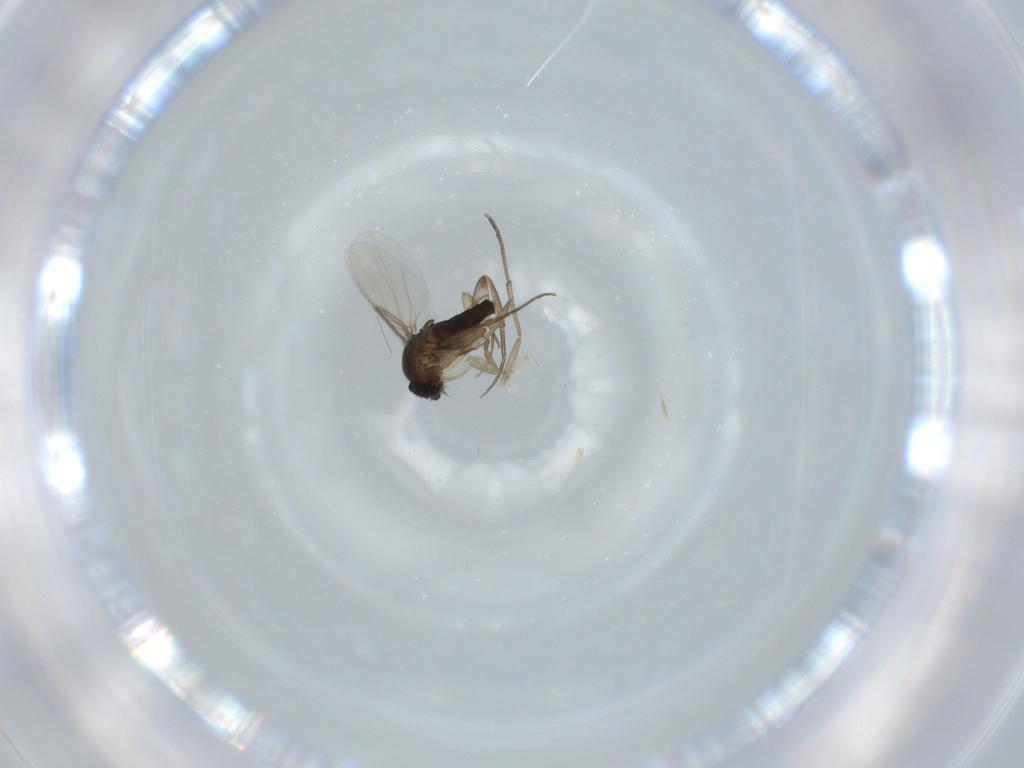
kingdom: Animalia
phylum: Arthropoda
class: Insecta
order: Diptera
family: Phoridae
